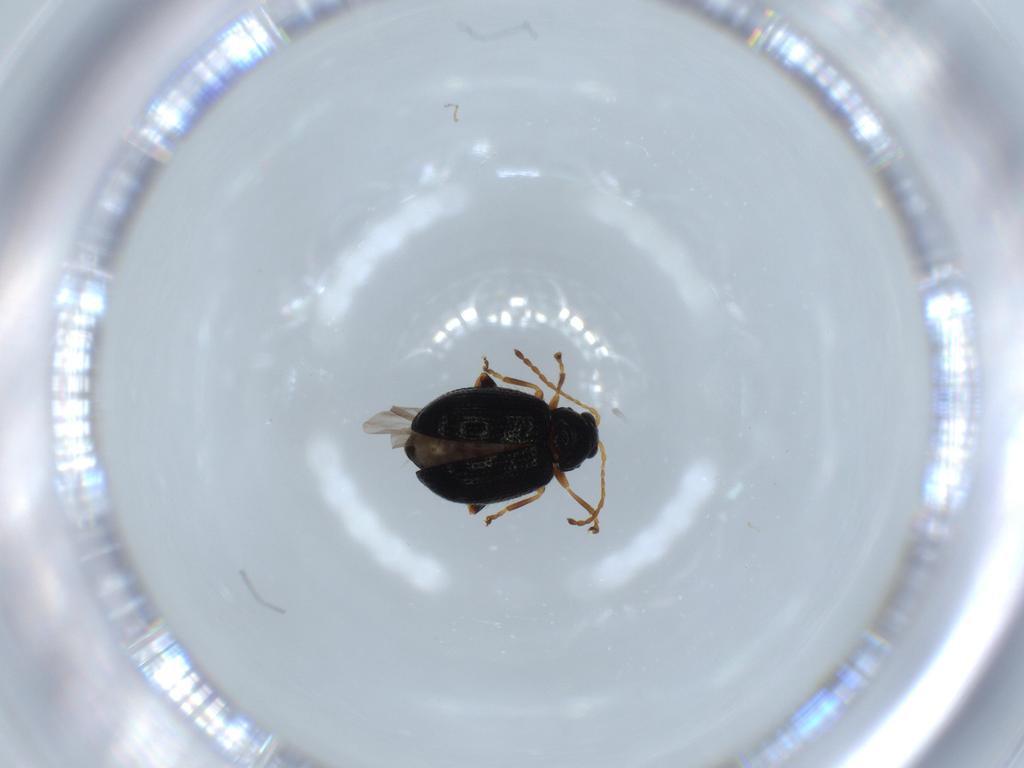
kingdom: Animalia
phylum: Arthropoda
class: Insecta
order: Coleoptera
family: Chrysomelidae
